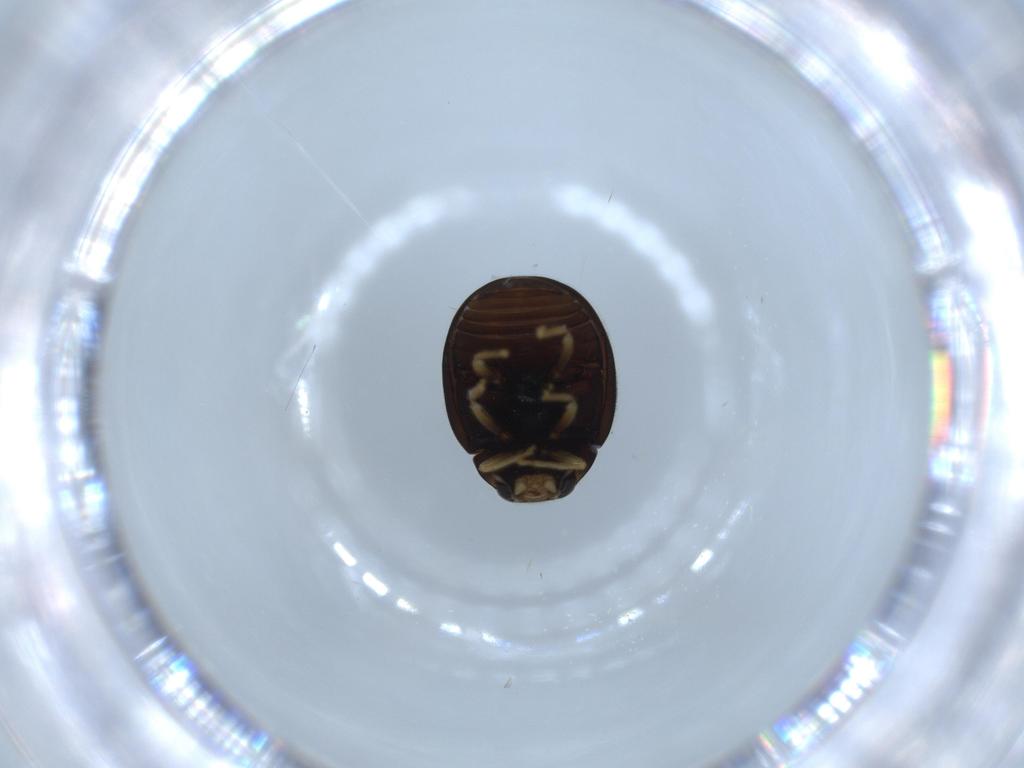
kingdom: Animalia
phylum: Arthropoda
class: Insecta
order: Coleoptera
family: Coccinellidae
